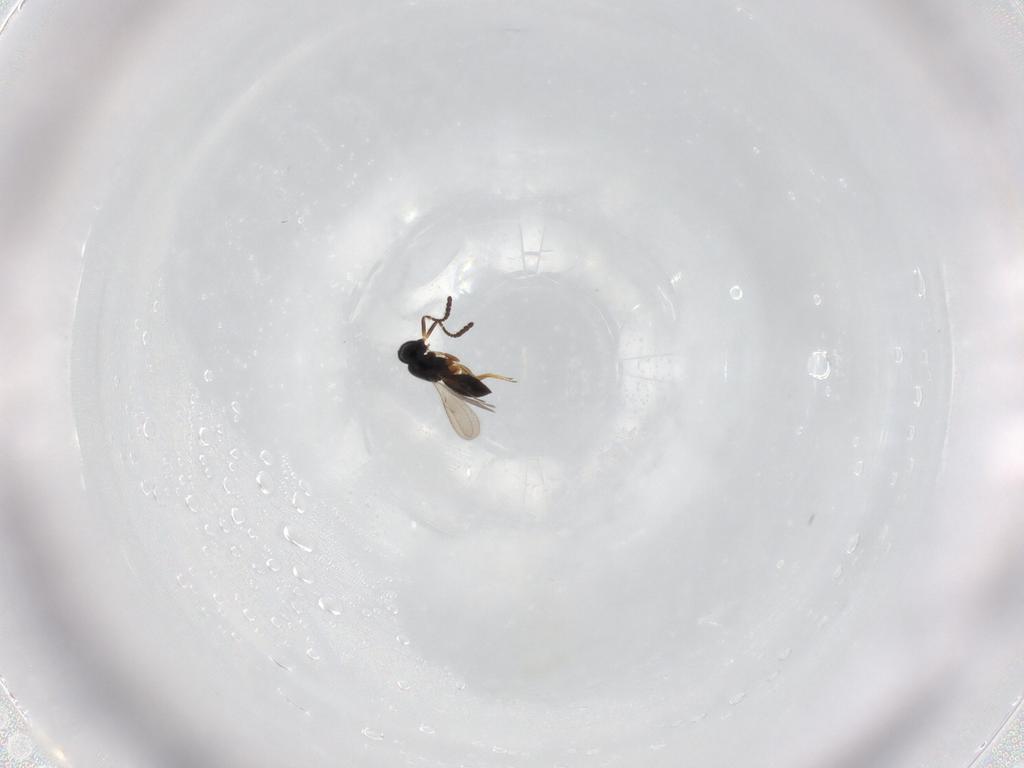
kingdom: Animalia
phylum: Arthropoda
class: Insecta
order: Hymenoptera
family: Scelionidae
